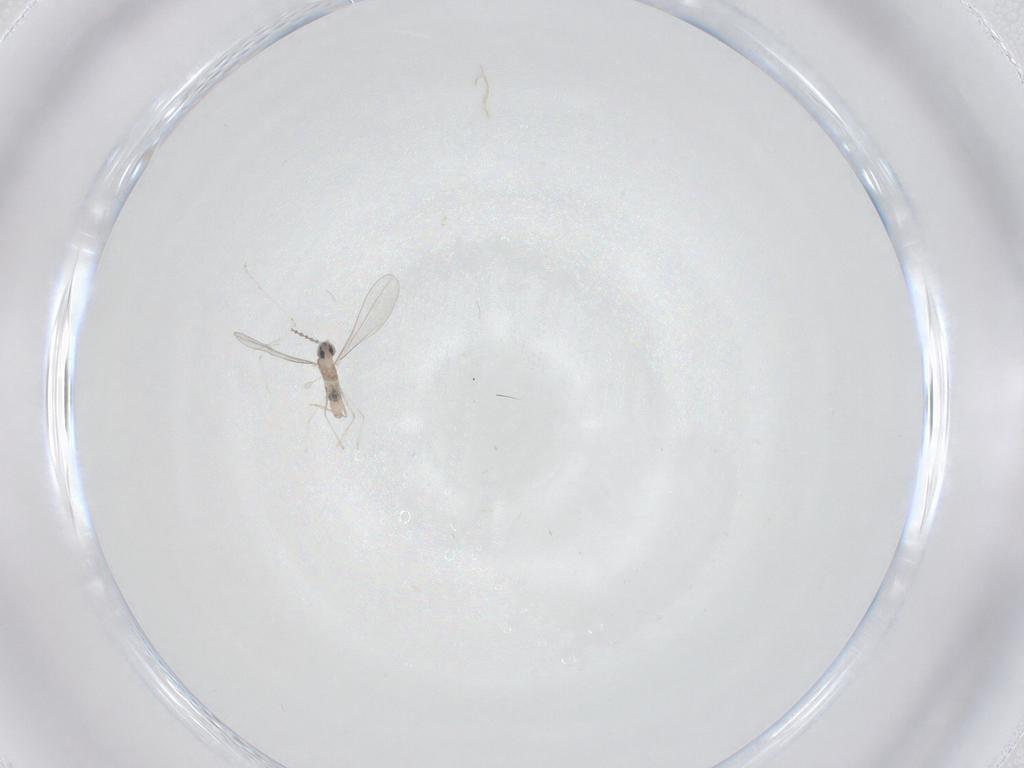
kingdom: Animalia
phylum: Arthropoda
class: Insecta
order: Diptera
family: Cecidomyiidae
